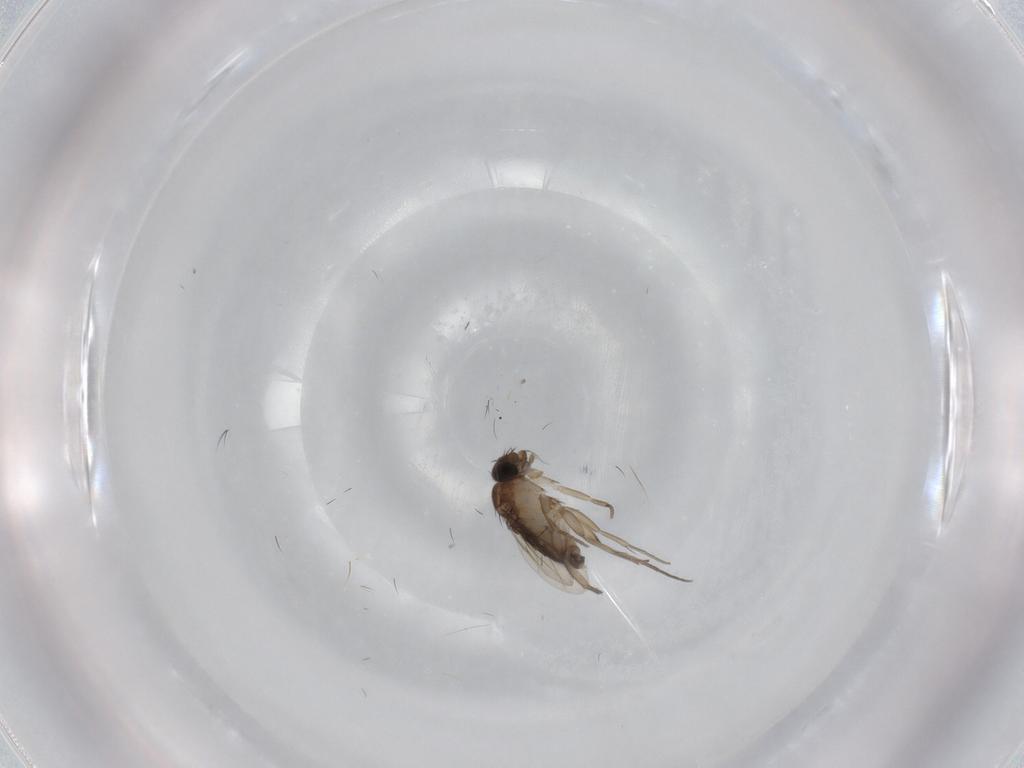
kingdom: Animalia
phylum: Arthropoda
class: Insecta
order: Diptera
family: Phoridae
